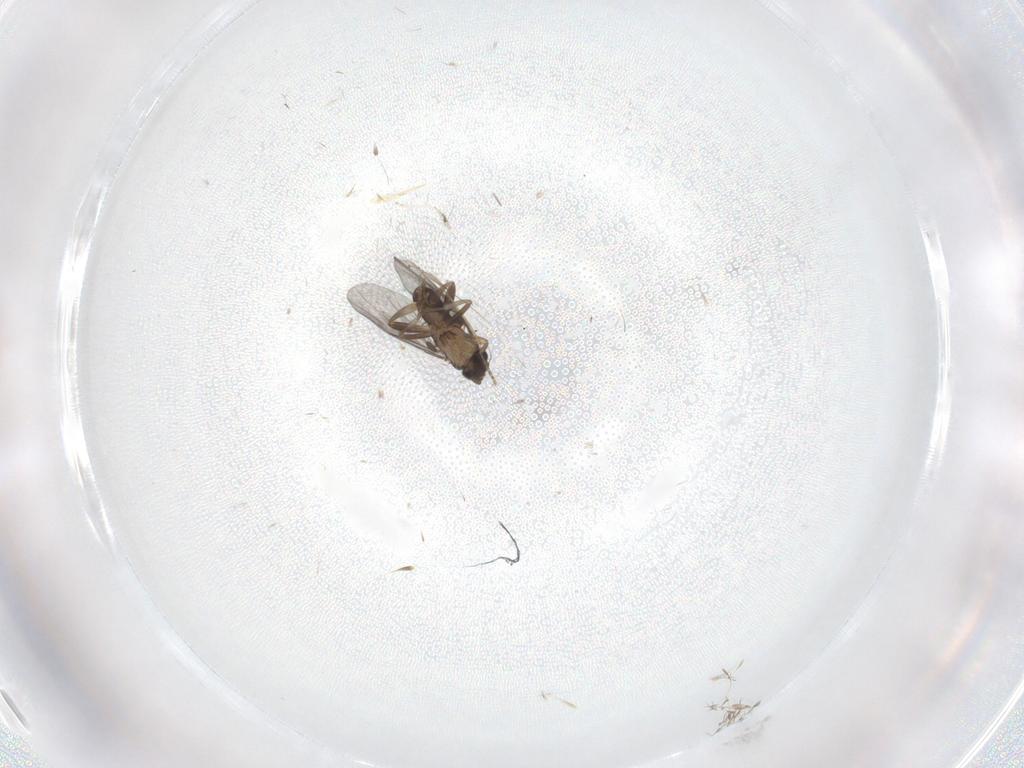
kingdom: Animalia
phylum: Arthropoda
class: Insecta
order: Diptera
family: Cecidomyiidae
